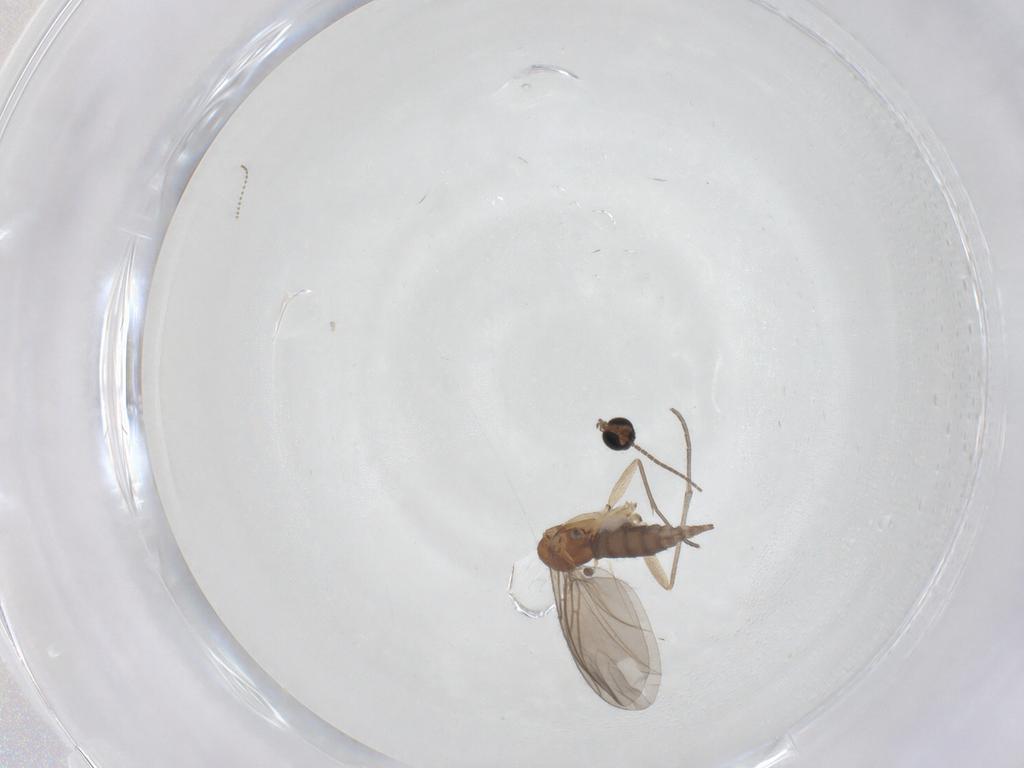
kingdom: Animalia
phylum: Arthropoda
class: Insecta
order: Diptera
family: Sciaridae
